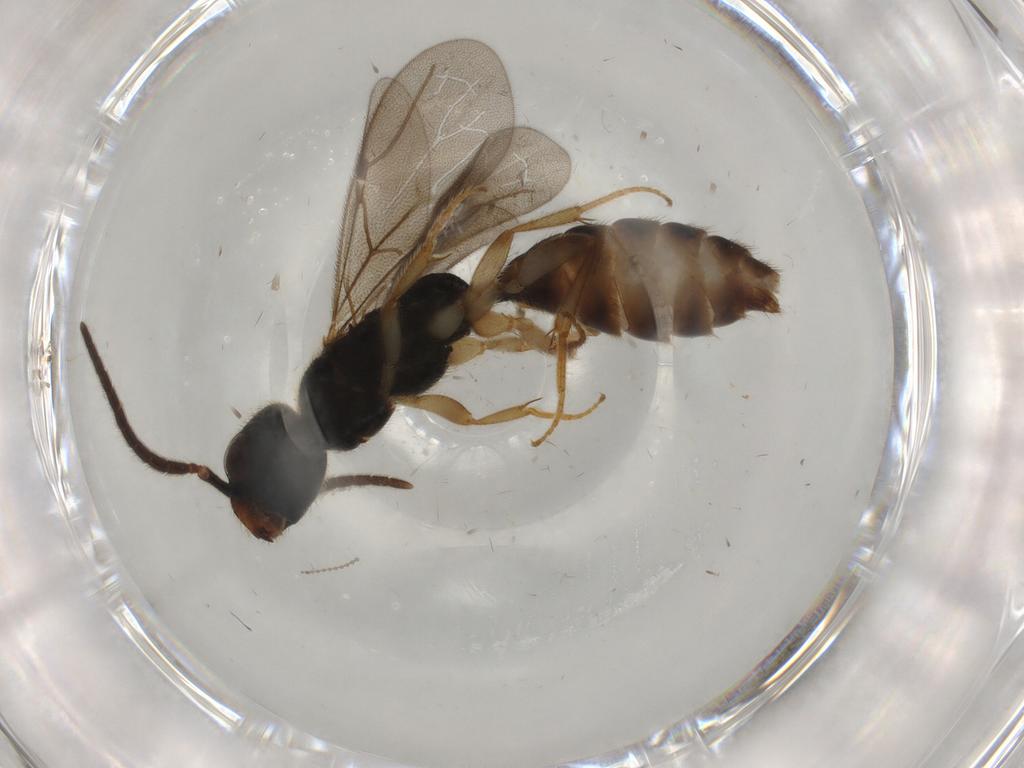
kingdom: Animalia
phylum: Arthropoda
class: Insecta
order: Hymenoptera
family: Bethylidae
